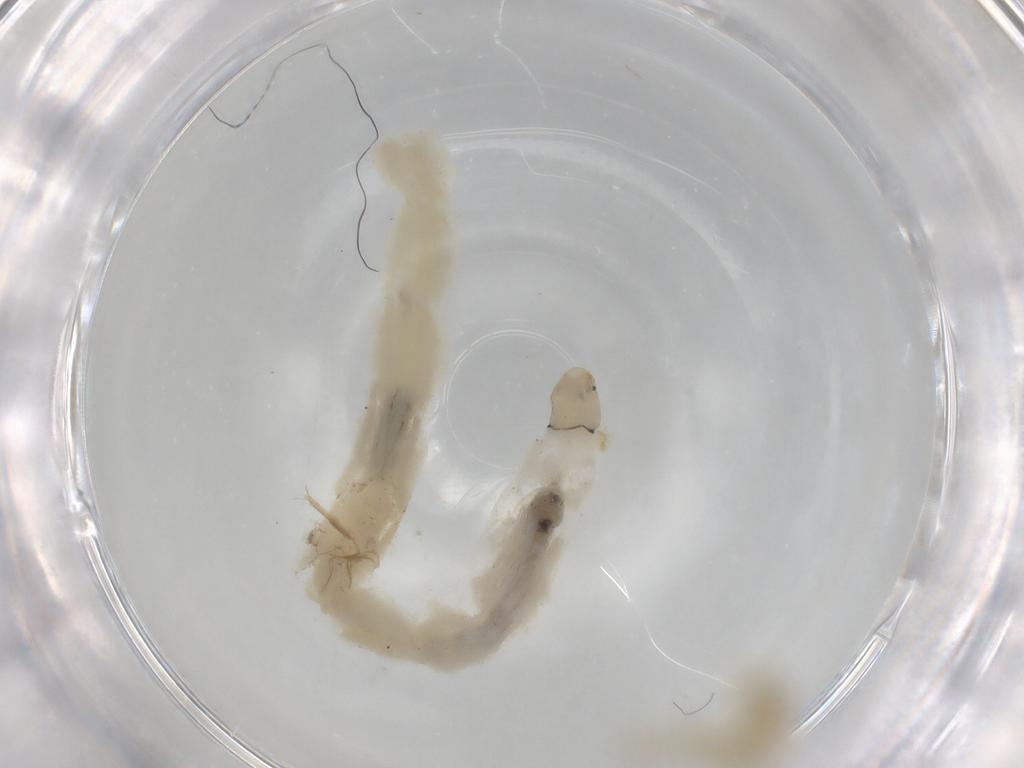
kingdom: Animalia
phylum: Arthropoda
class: Insecta
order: Diptera
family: Chironomidae
